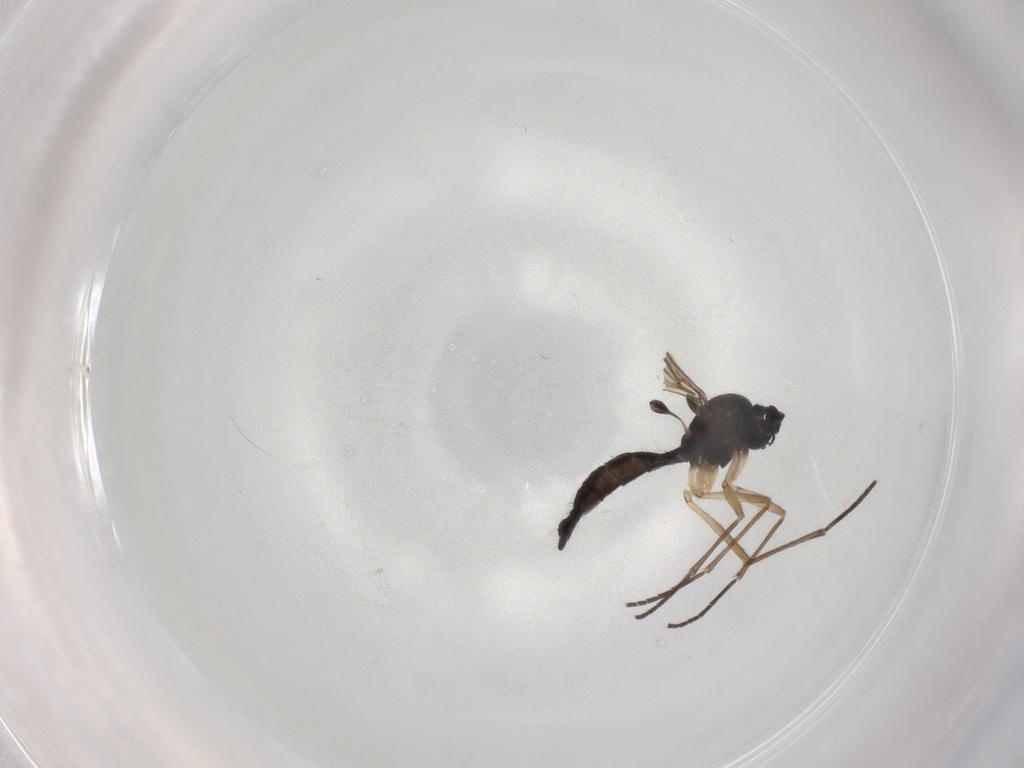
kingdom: Animalia
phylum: Arthropoda
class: Insecta
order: Diptera
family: Sciaridae
